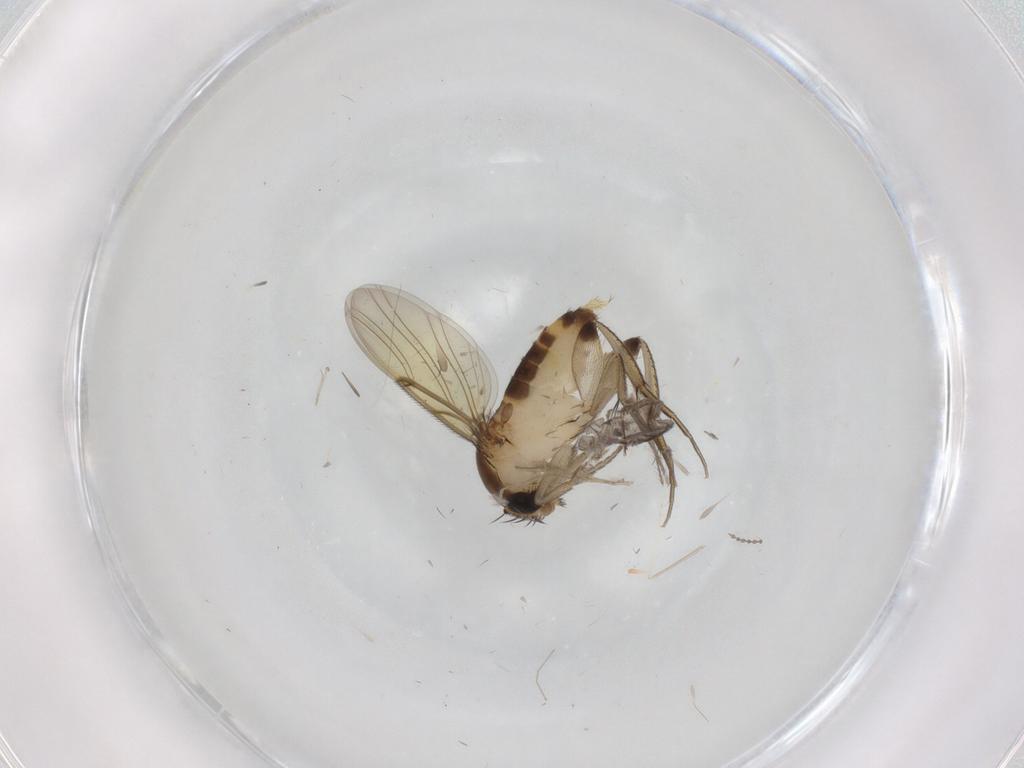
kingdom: Animalia
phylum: Arthropoda
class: Insecta
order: Diptera
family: Phoridae
